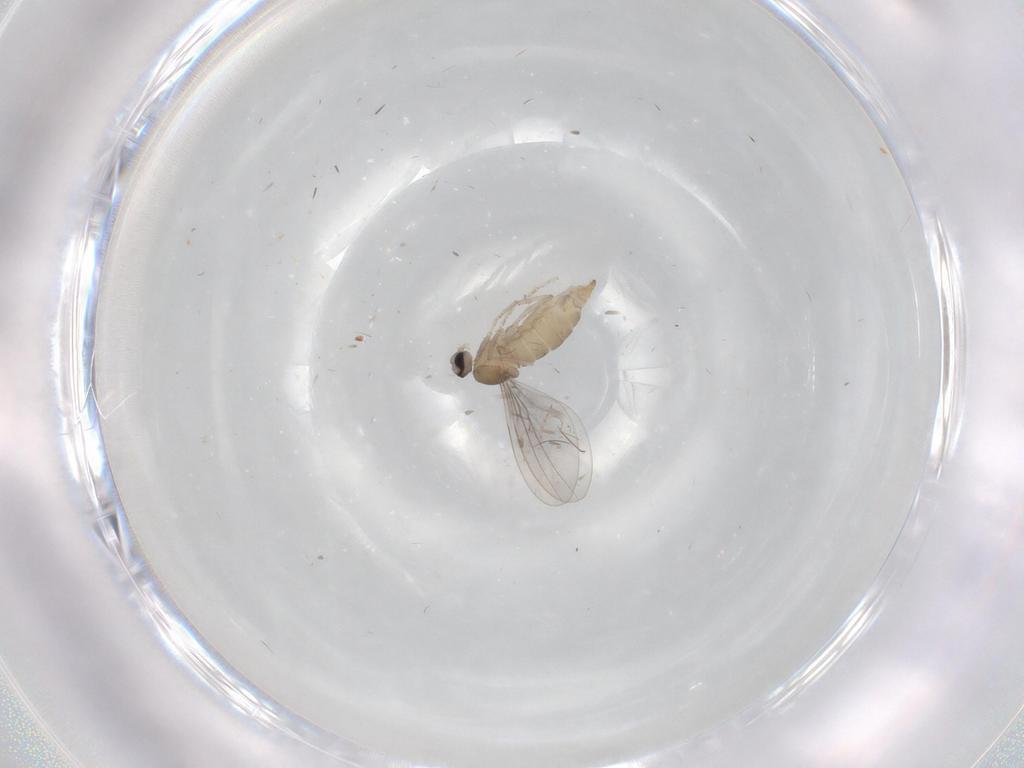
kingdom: Animalia
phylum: Arthropoda
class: Insecta
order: Diptera
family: Cecidomyiidae
